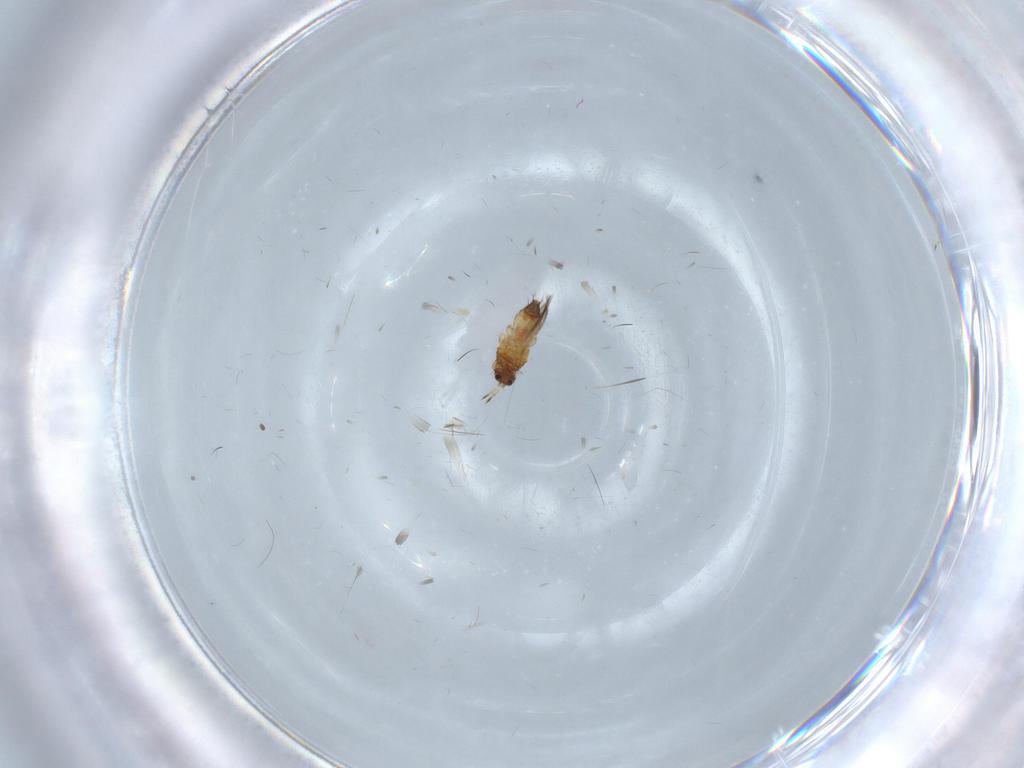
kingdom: Animalia
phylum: Arthropoda
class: Insecta
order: Thysanoptera
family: Thripidae
